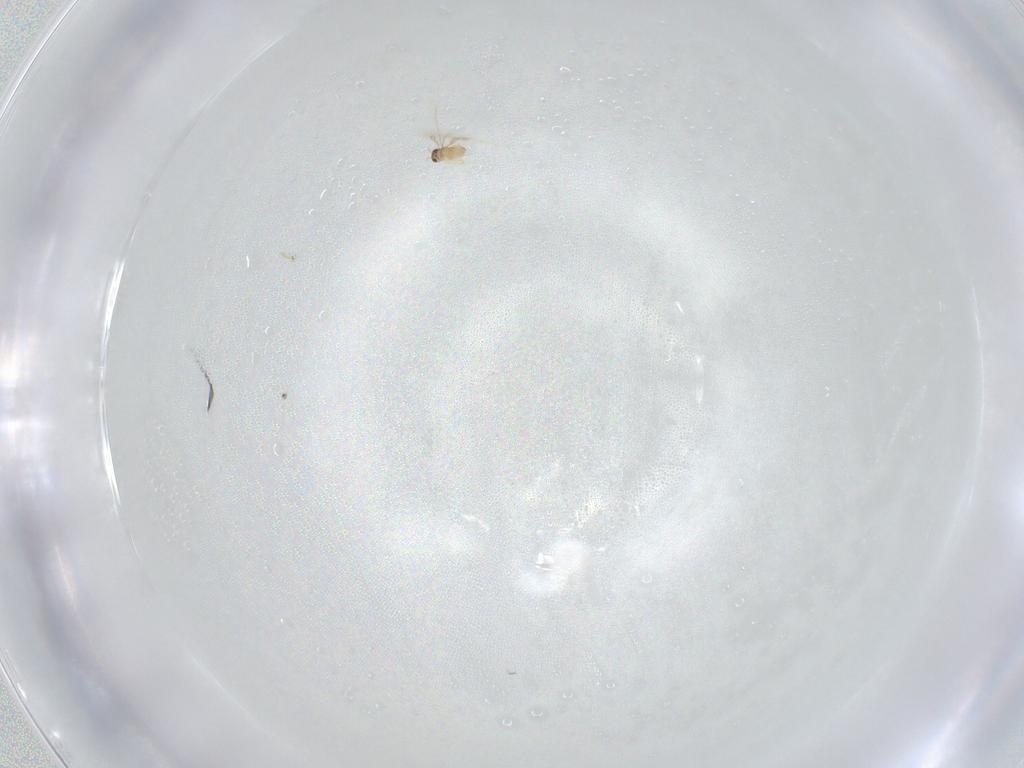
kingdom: Animalia
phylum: Arthropoda
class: Insecta
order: Hymenoptera
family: Mymaridae
